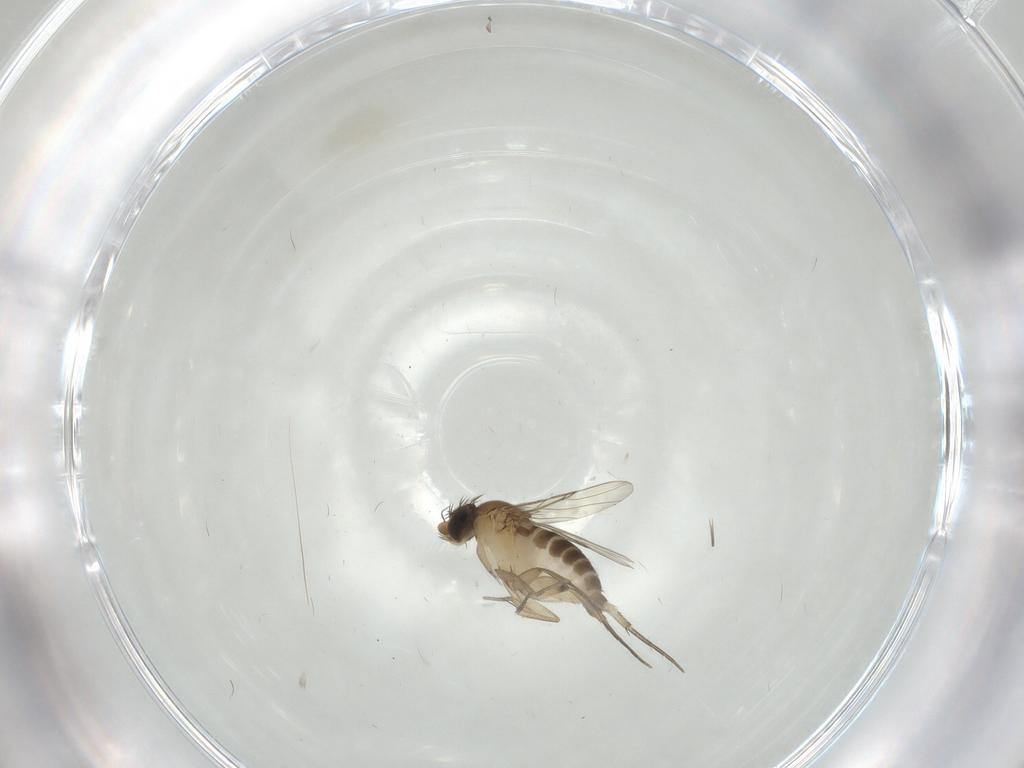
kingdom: Animalia
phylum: Arthropoda
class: Insecta
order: Diptera
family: Phoridae
